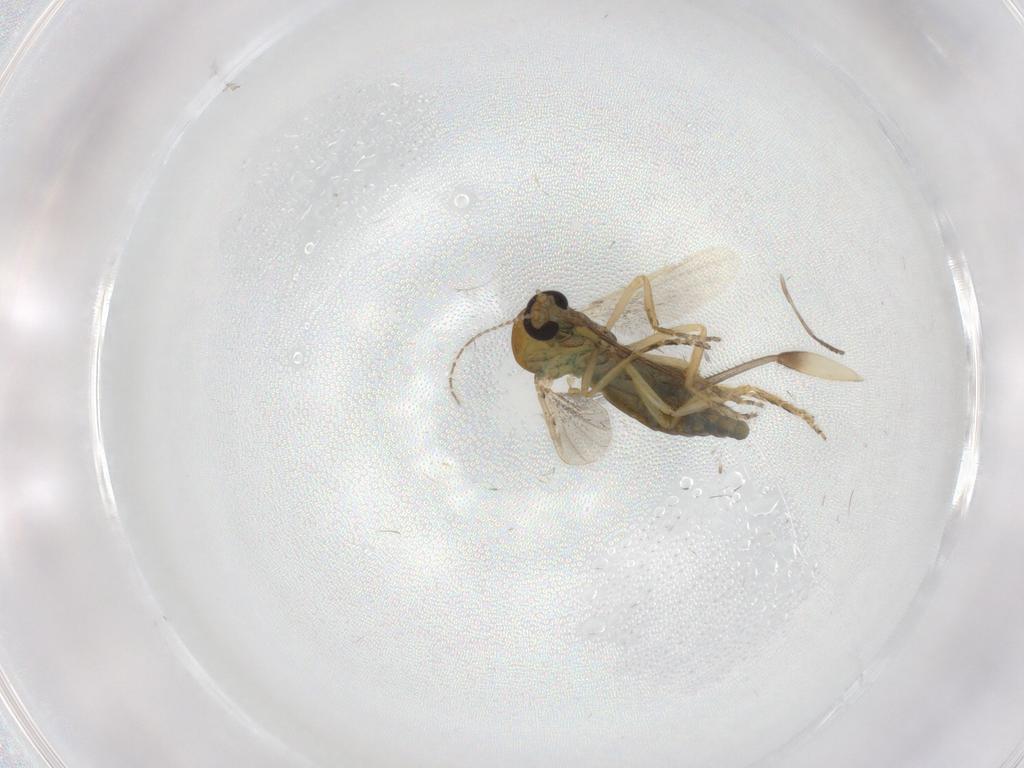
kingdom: Animalia
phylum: Arthropoda
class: Insecta
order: Diptera
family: Ceratopogonidae
